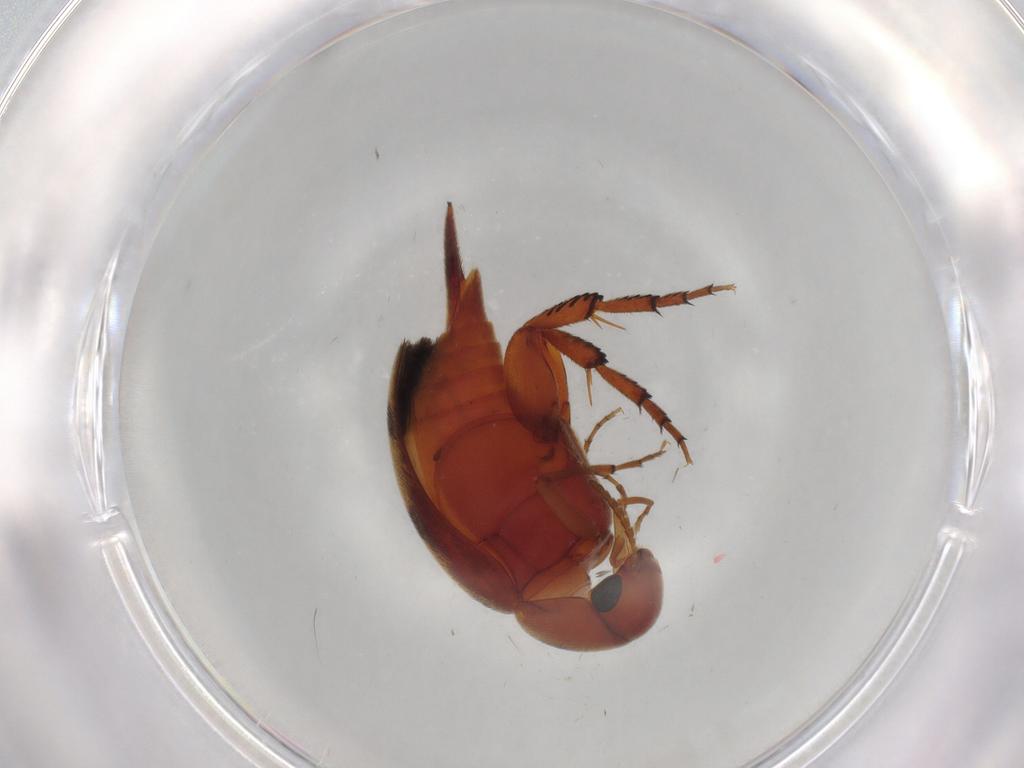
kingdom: Animalia
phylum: Arthropoda
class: Insecta
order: Coleoptera
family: Mordellidae
